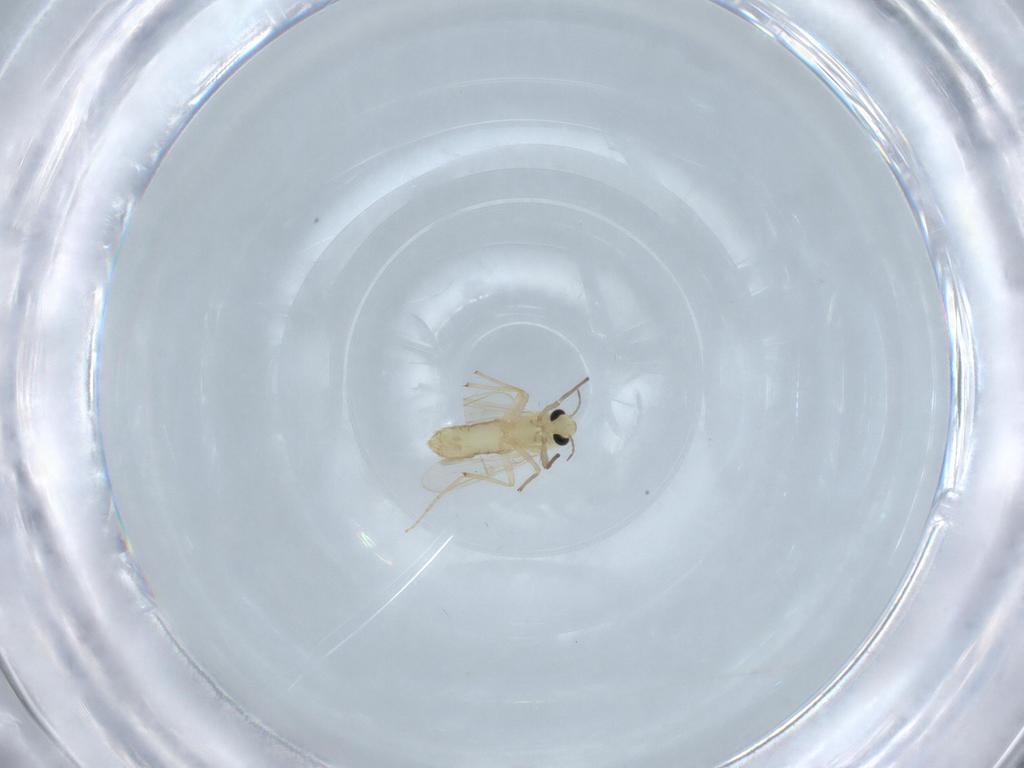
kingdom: Animalia
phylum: Arthropoda
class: Insecta
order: Diptera
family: Chironomidae
